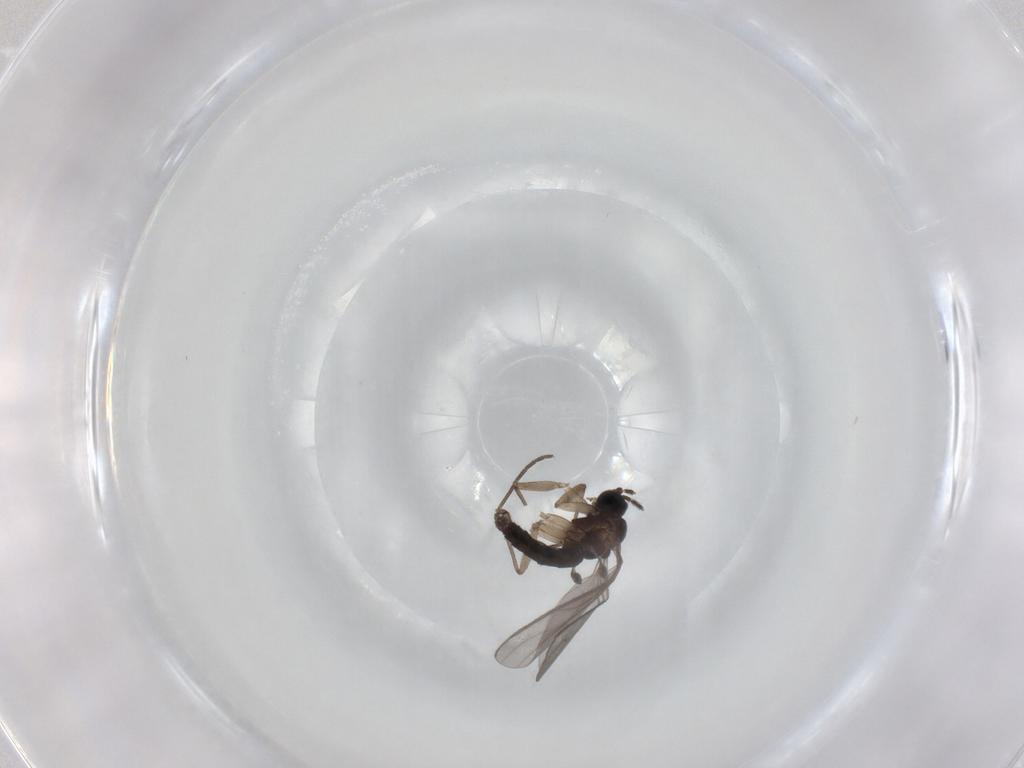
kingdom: Animalia
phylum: Arthropoda
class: Insecta
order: Diptera
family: Sciaridae
